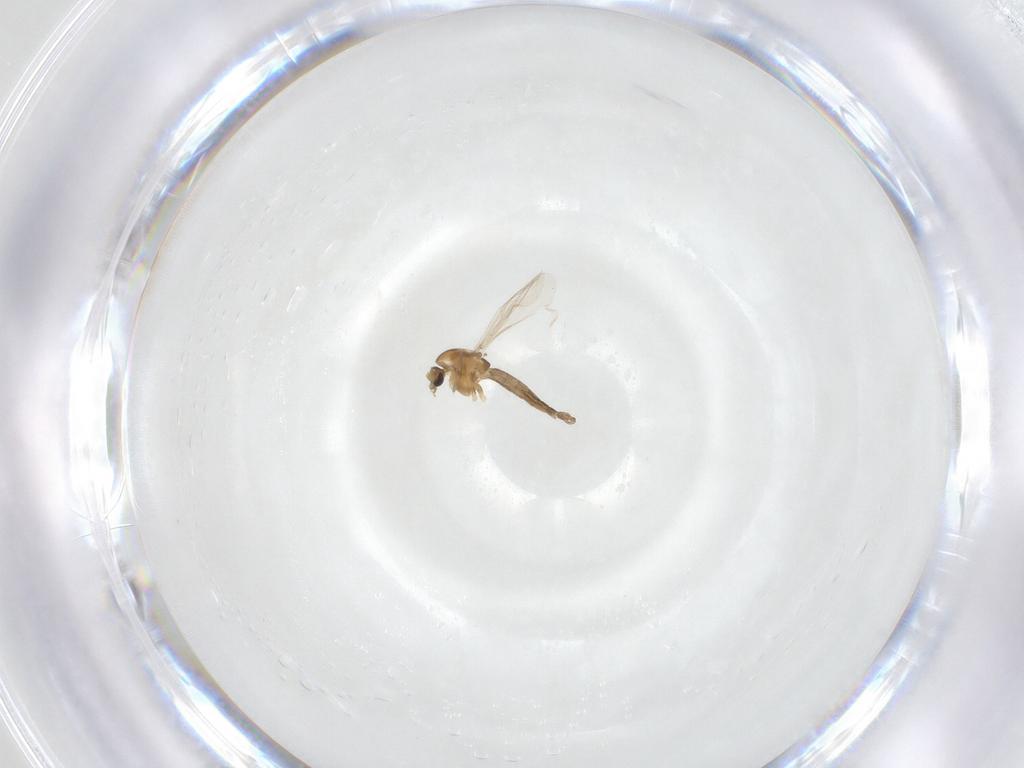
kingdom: Animalia
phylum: Arthropoda
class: Insecta
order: Diptera
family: Chironomidae
